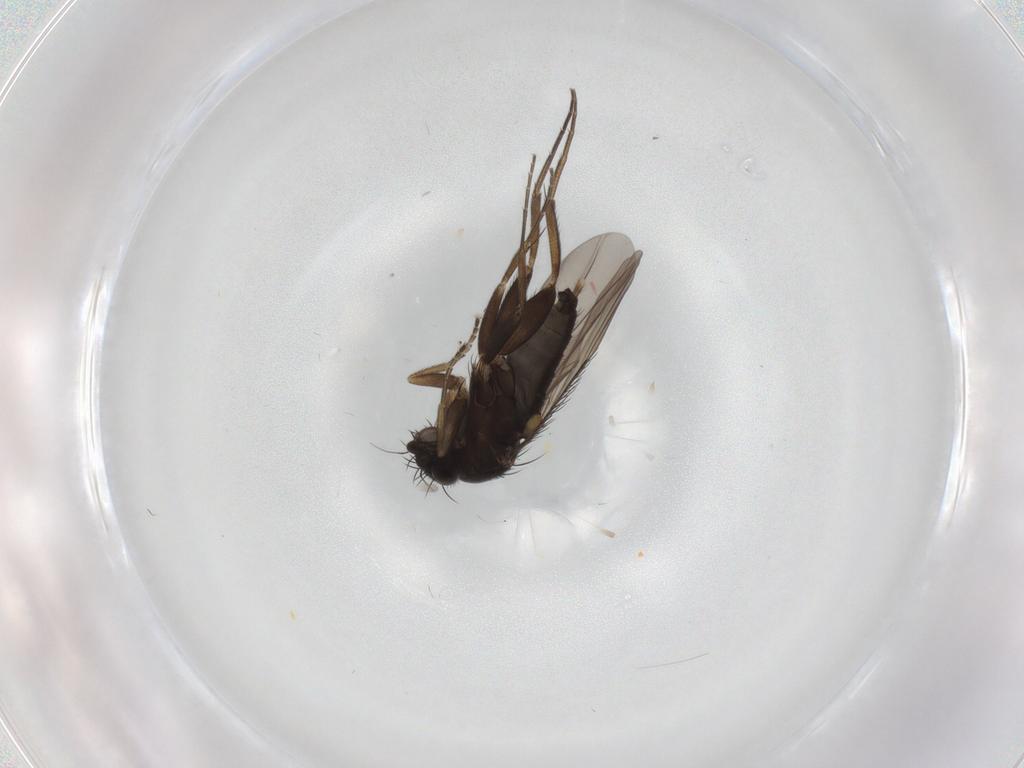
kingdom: Animalia
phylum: Arthropoda
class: Insecta
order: Diptera
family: Phoridae
